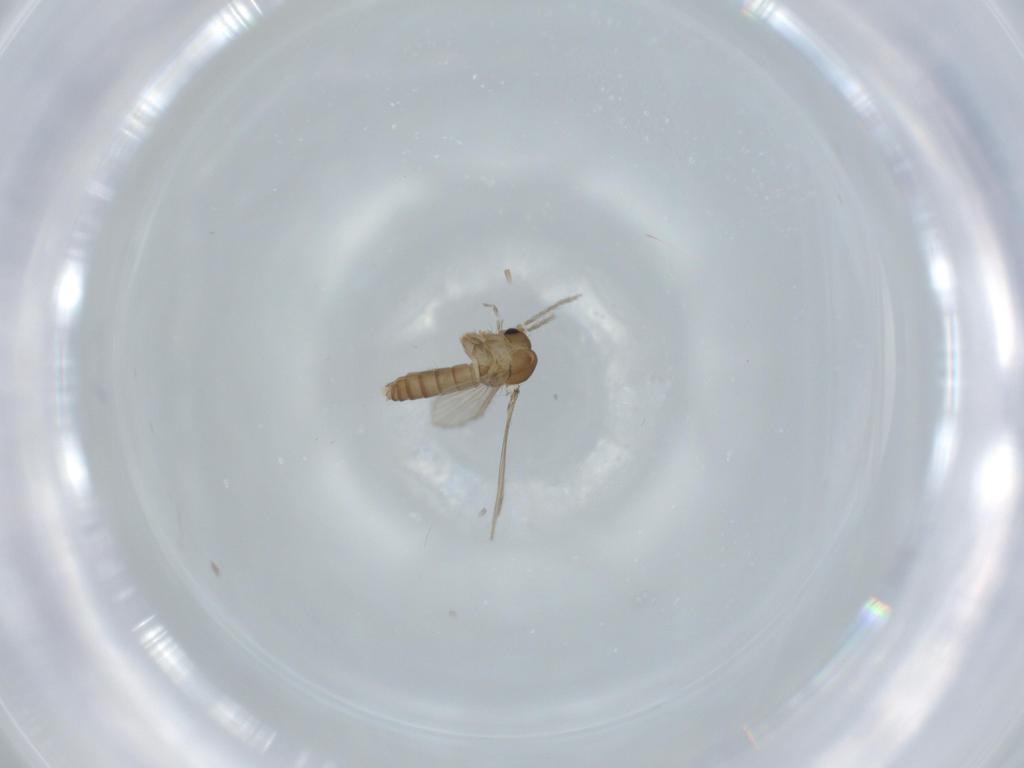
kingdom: Animalia
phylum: Arthropoda
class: Insecta
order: Diptera
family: Psychodidae
